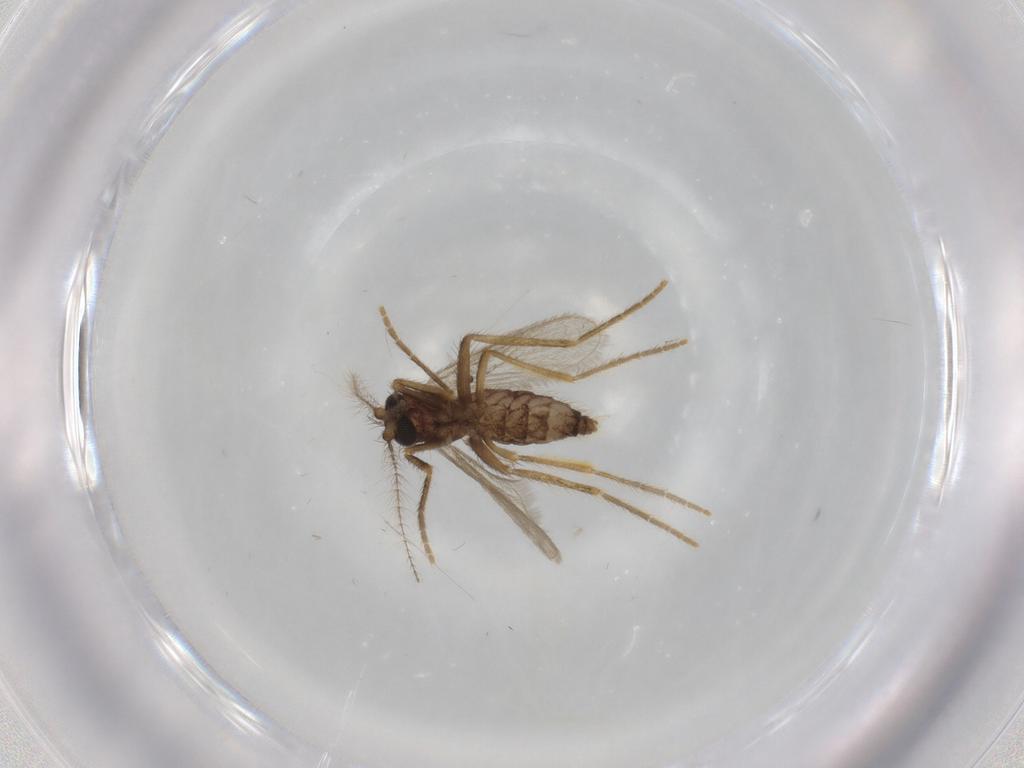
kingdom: Animalia
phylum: Arthropoda
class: Insecta
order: Diptera
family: Corethrellidae
